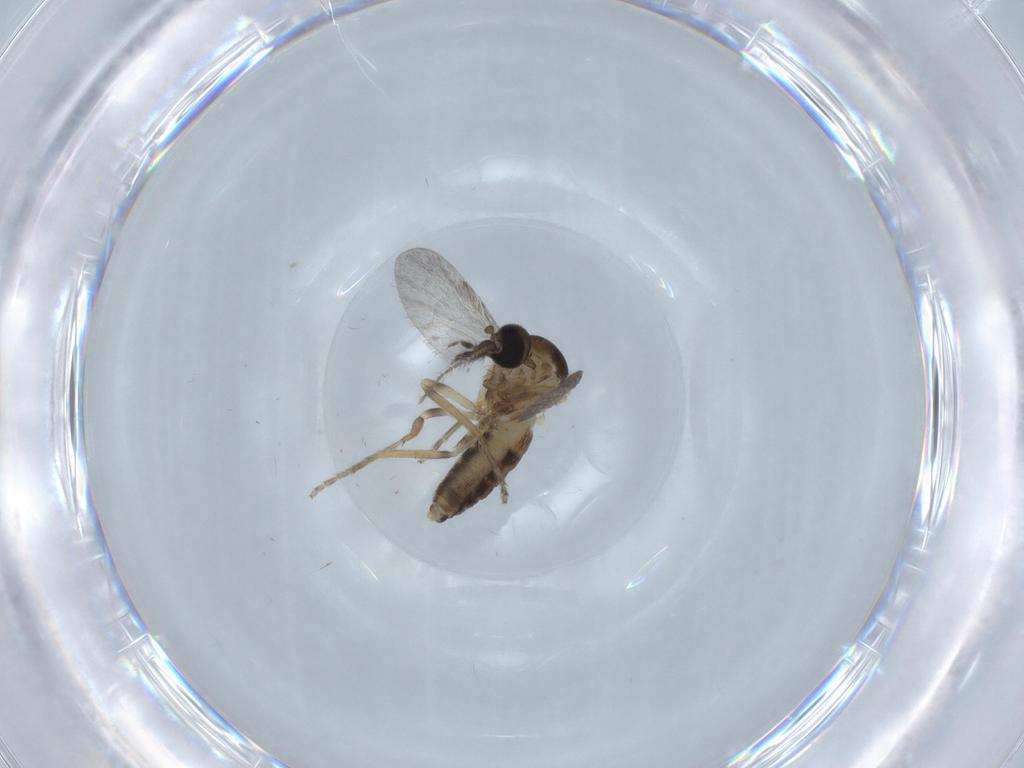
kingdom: Animalia
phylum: Arthropoda
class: Insecta
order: Diptera
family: Ceratopogonidae
